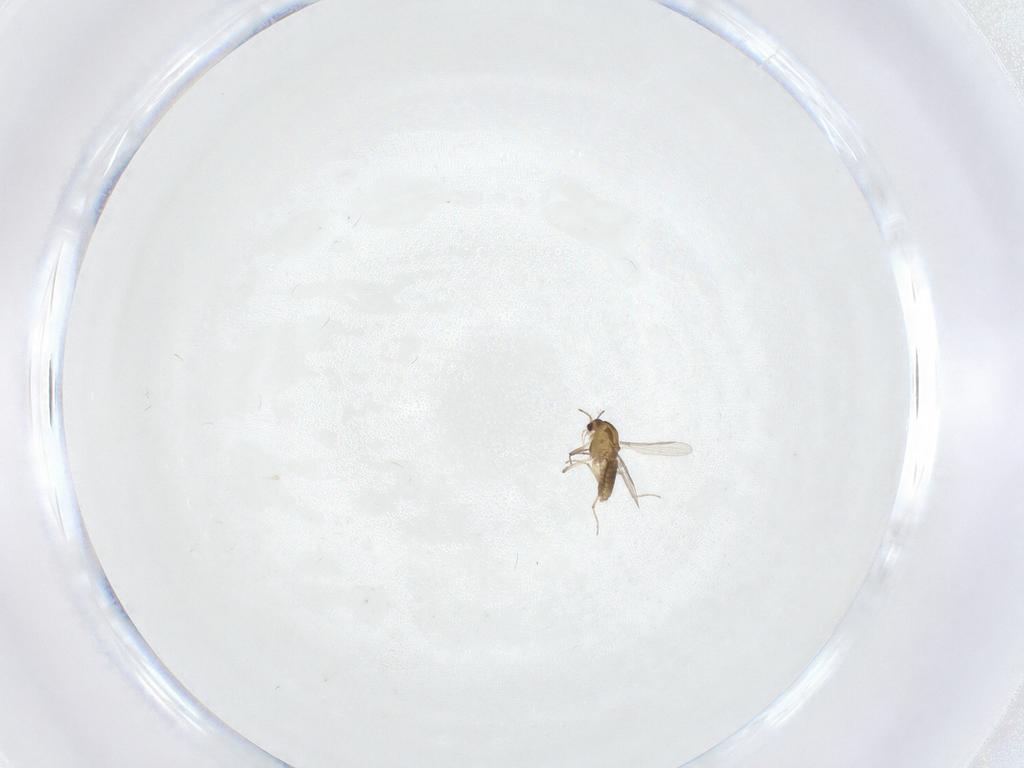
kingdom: Animalia
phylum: Arthropoda
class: Insecta
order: Diptera
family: Chironomidae
